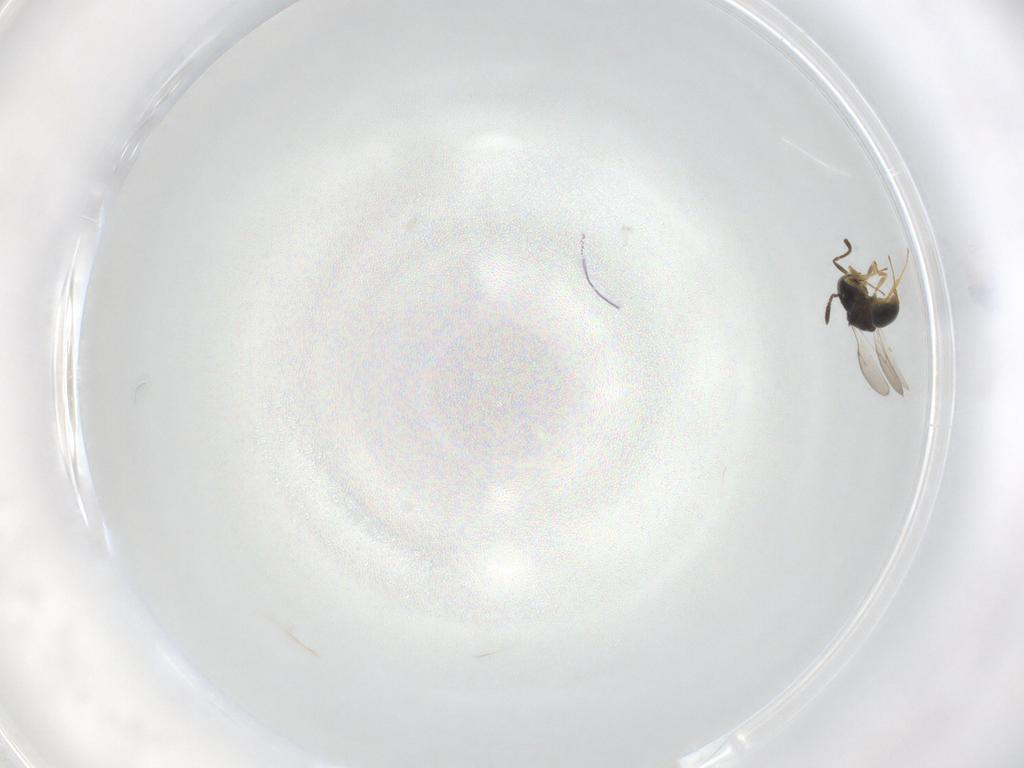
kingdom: Animalia
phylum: Arthropoda
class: Insecta
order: Hymenoptera
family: Scelionidae
